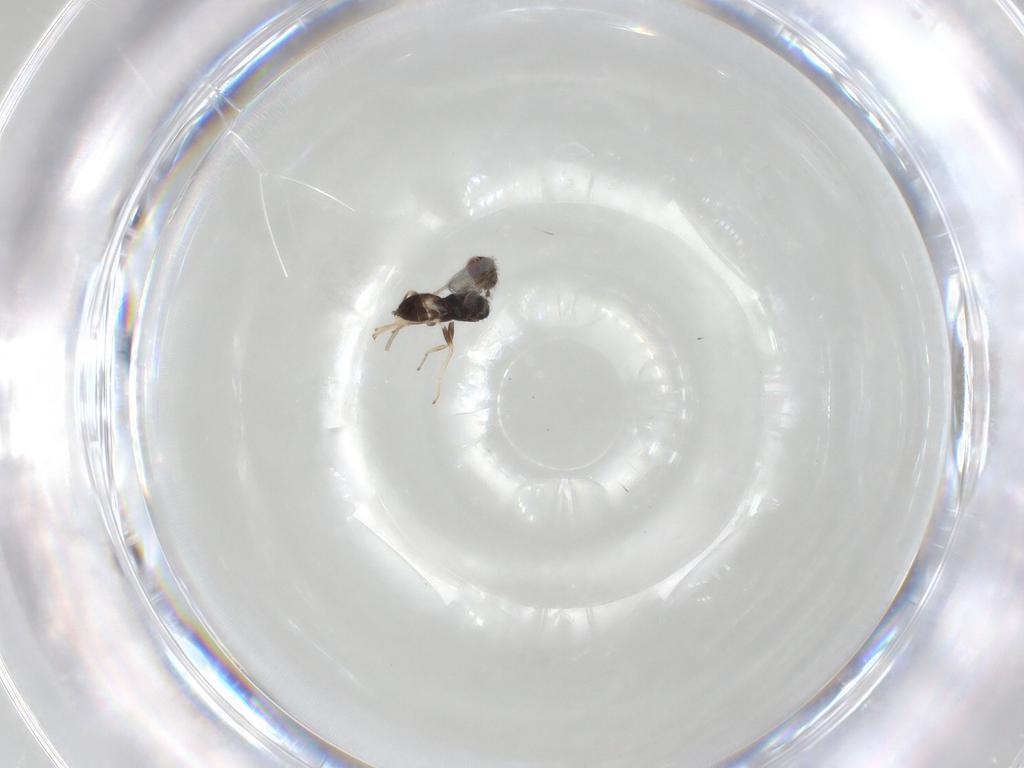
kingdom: Animalia
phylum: Arthropoda
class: Insecta
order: Hymenoptera
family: Eulophidae
